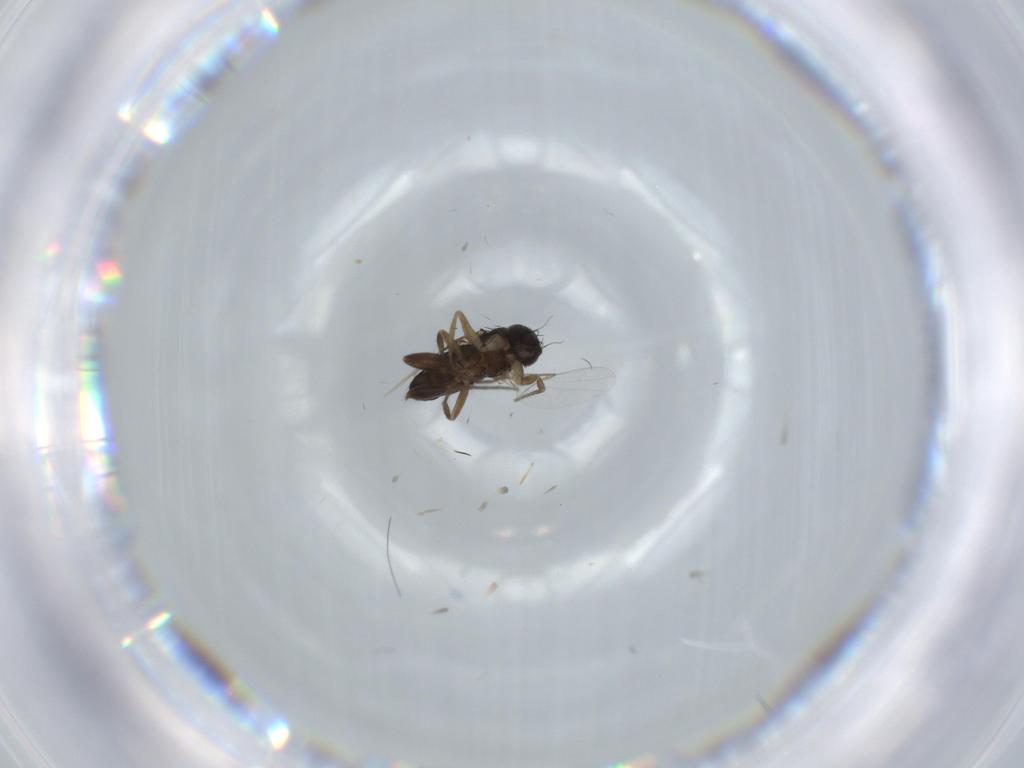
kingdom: Animalia
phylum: Arthropoda
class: Insecta
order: Diptera
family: Phoridae
